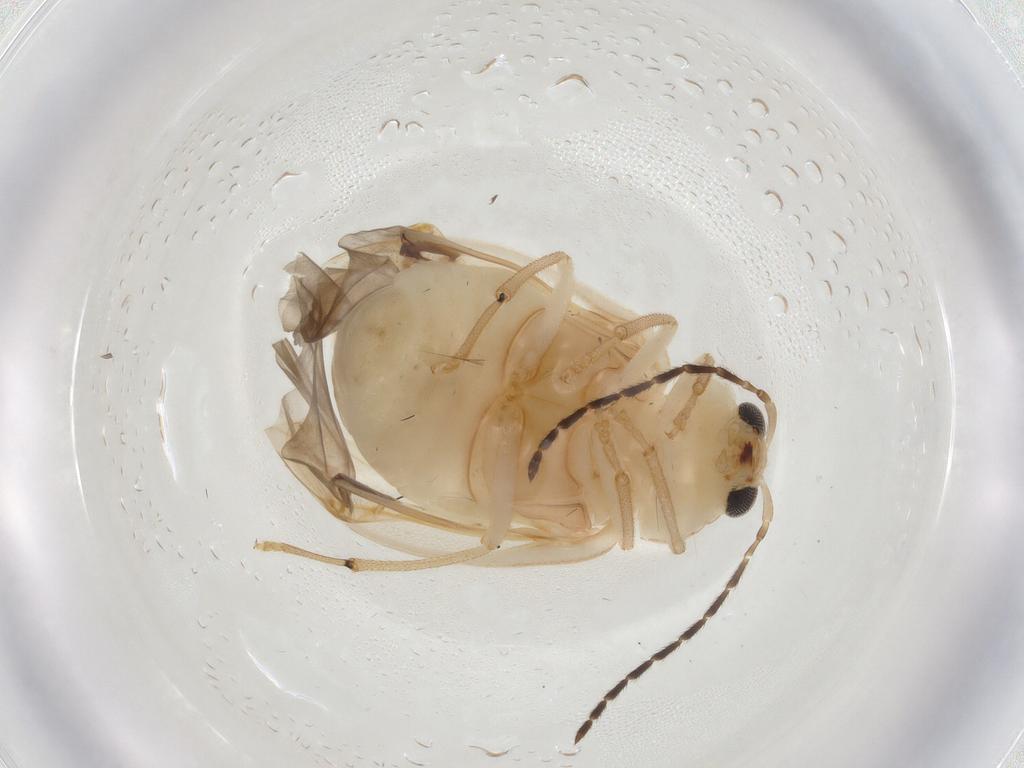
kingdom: Animalia
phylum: Arthropoda
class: Insecta
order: Coleoptera
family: Chrysomelidae
